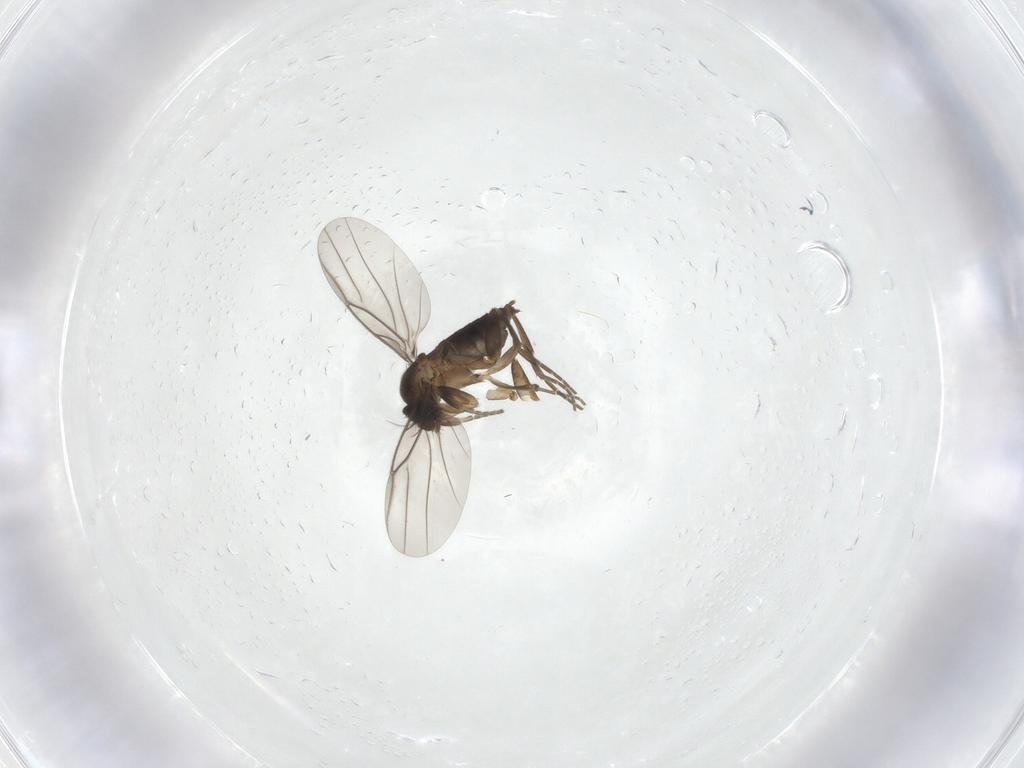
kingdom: Animalia
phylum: Arthropoda
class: Insecta
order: Diptera
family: Phoridae
